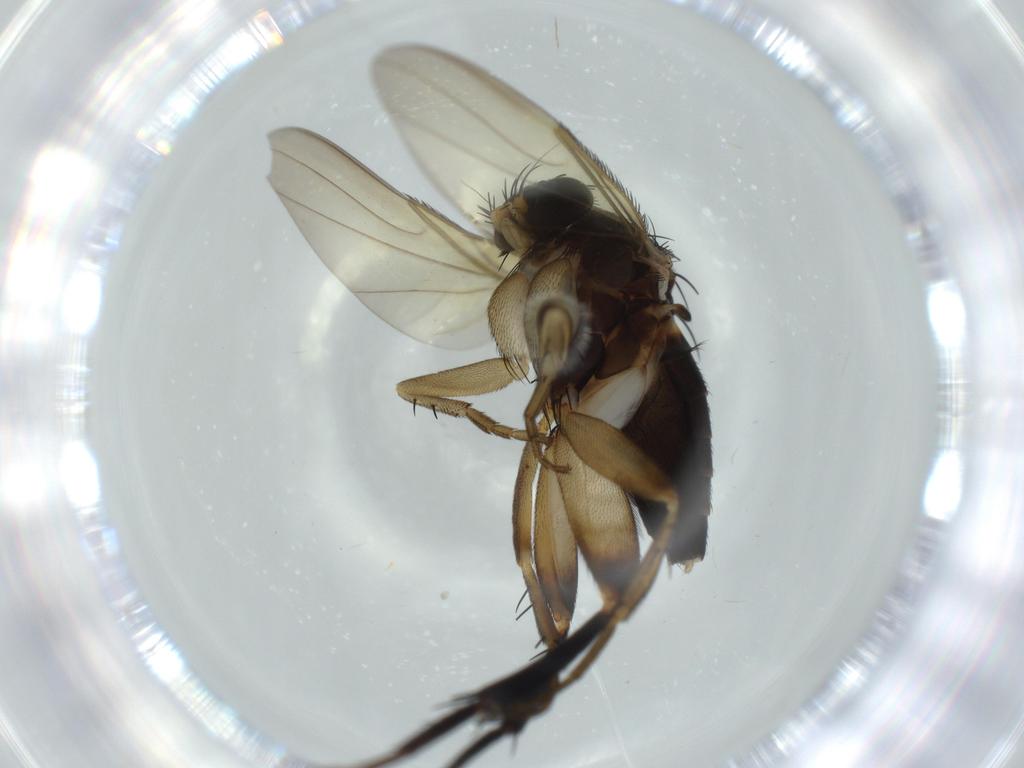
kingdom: Animalia
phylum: Arthropoda
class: Insecta
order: Diptera
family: Phoridae
